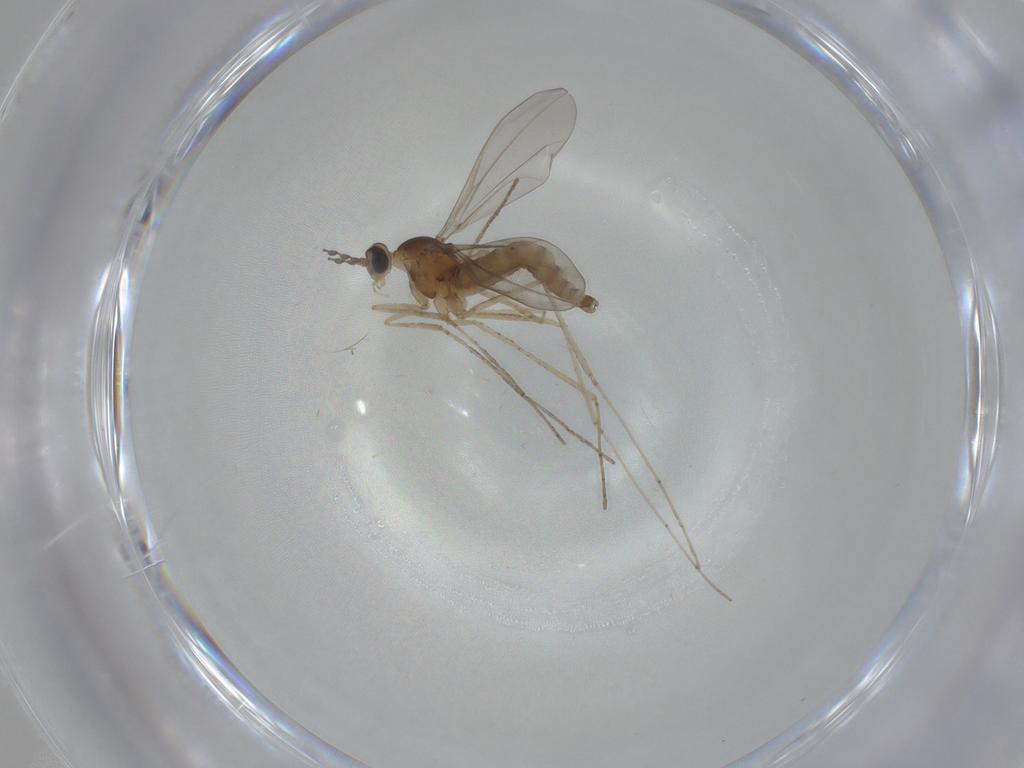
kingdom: Animalia
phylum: Arthropoda
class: Insecta
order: Diptera
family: Cecidomyiidae
